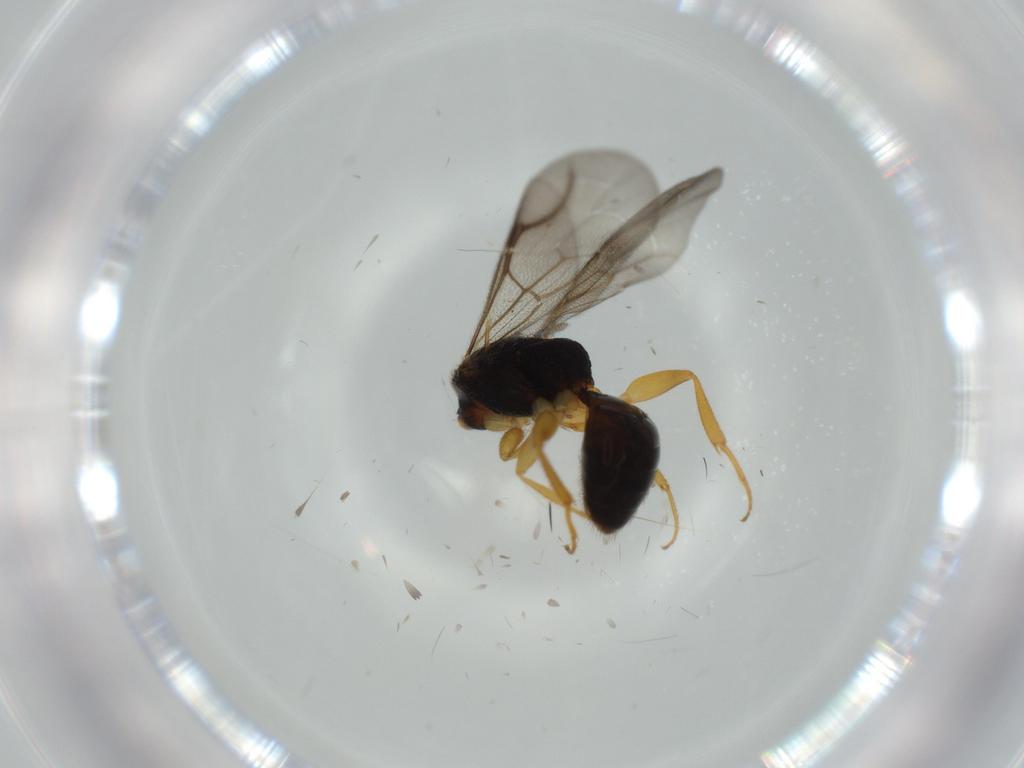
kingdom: Animalia
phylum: Arthropoda
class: Insecta
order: Hymenoptera
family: Bethylidae
